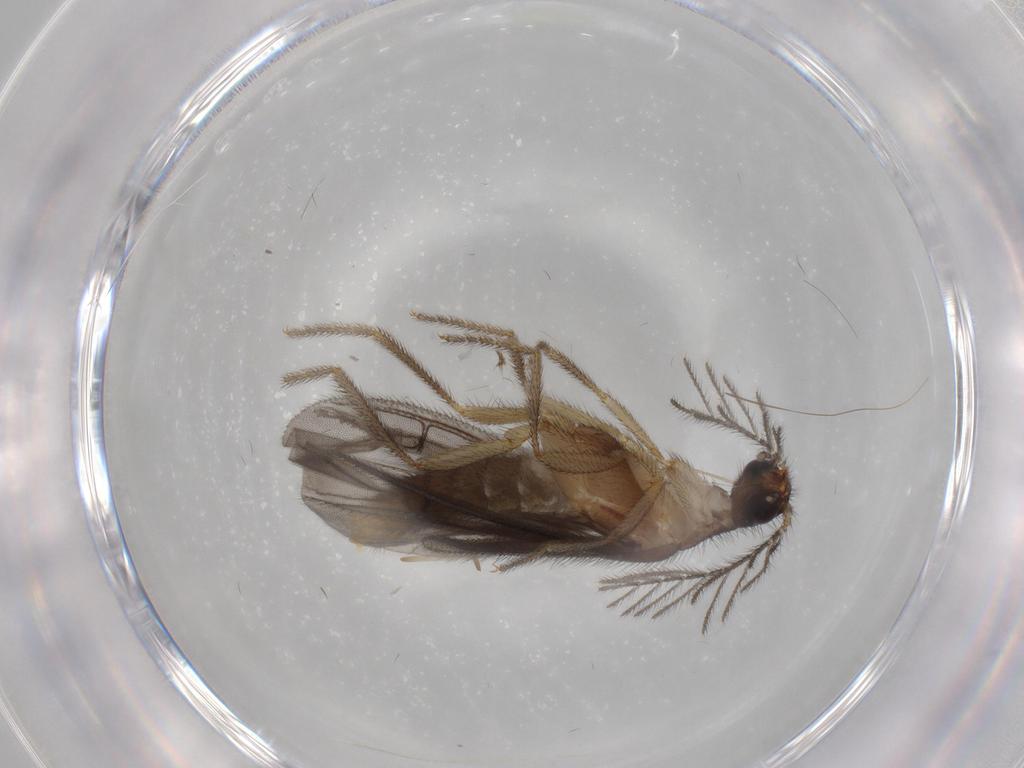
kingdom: Animalia
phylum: Arthropoda
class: Insecta
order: Coleoptera
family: Phengodidae
